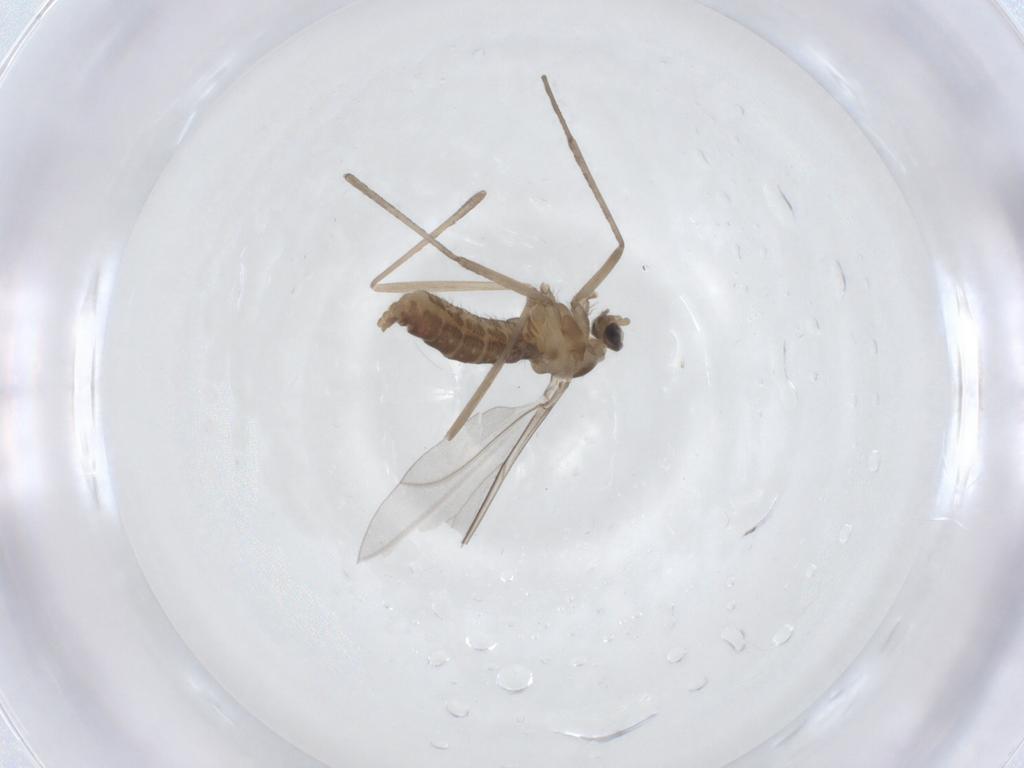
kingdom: Animalia
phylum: Arthropoda
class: Insecta
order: Diptera
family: Cecidomyiidae
